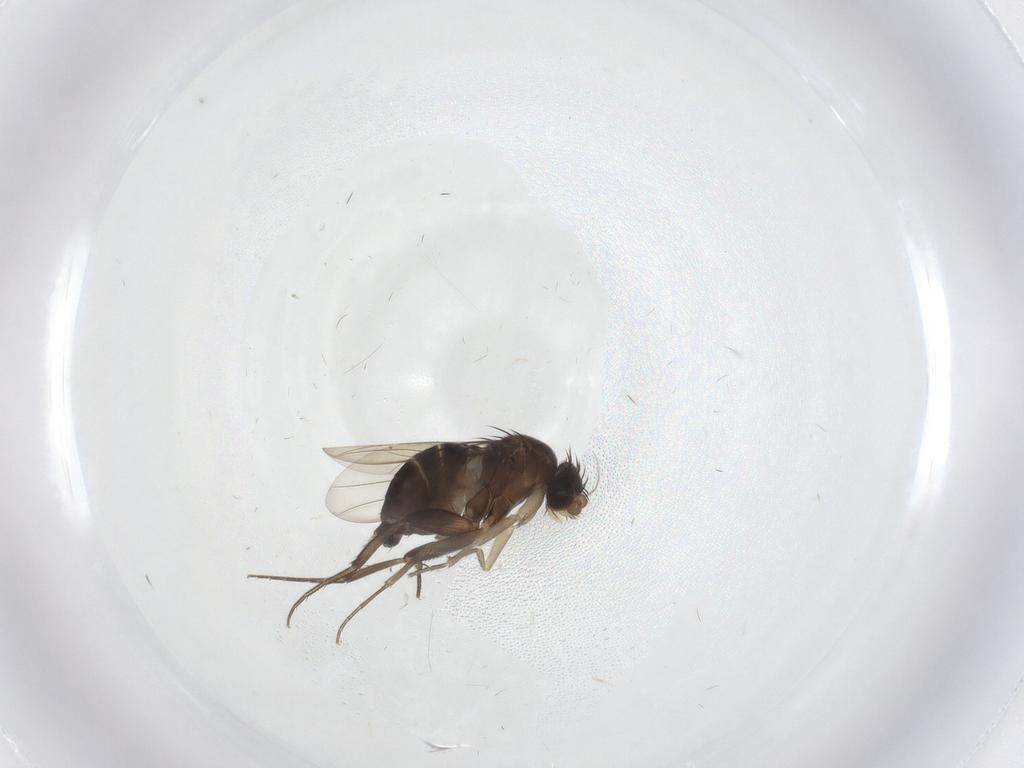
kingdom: Animalia
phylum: Arthropoda
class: Insecta
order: Diptera
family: Phoridae
